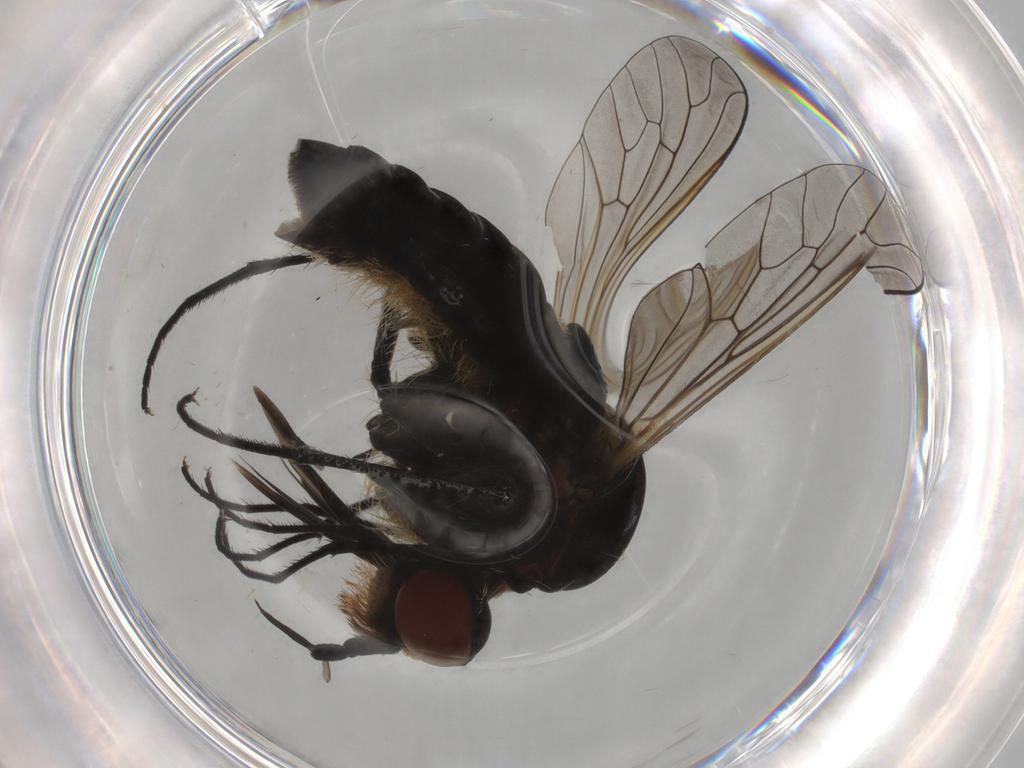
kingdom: Animalia
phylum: Arthropoda
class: Insecta
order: Diptera
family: Bombyliidae
